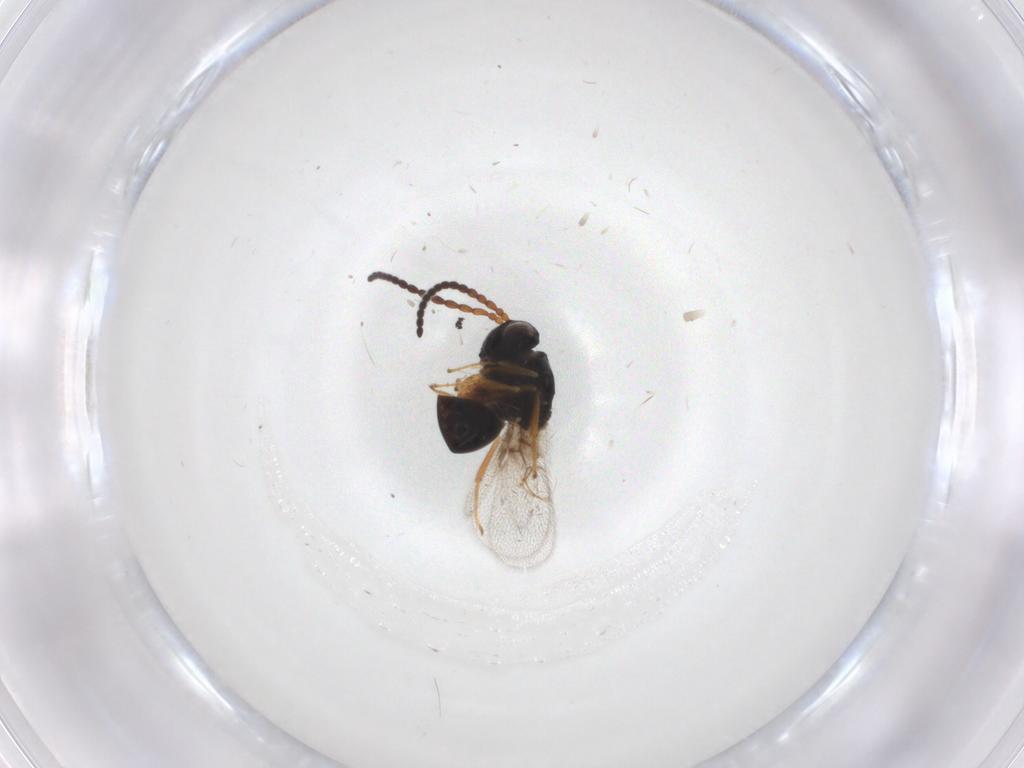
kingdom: Animalia
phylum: Arthropoda
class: Insecta
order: Hymenoptera
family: Figitidae
